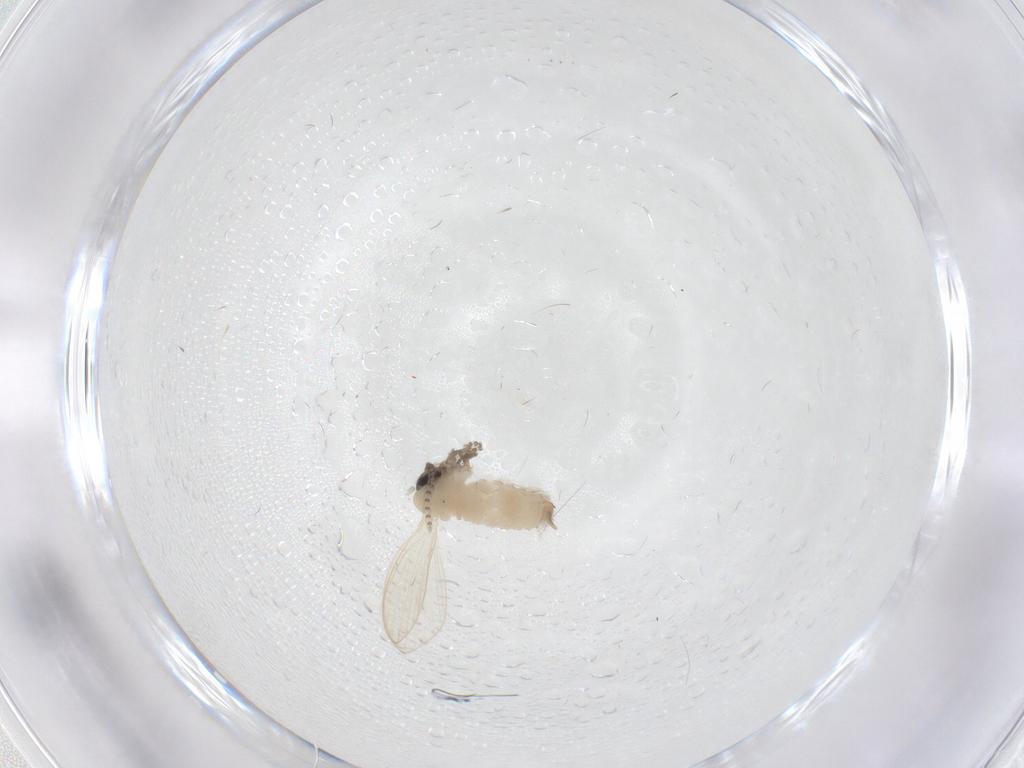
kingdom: Animalia
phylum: Arthropoda
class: Insecta
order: Diptera
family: Psychodidae
